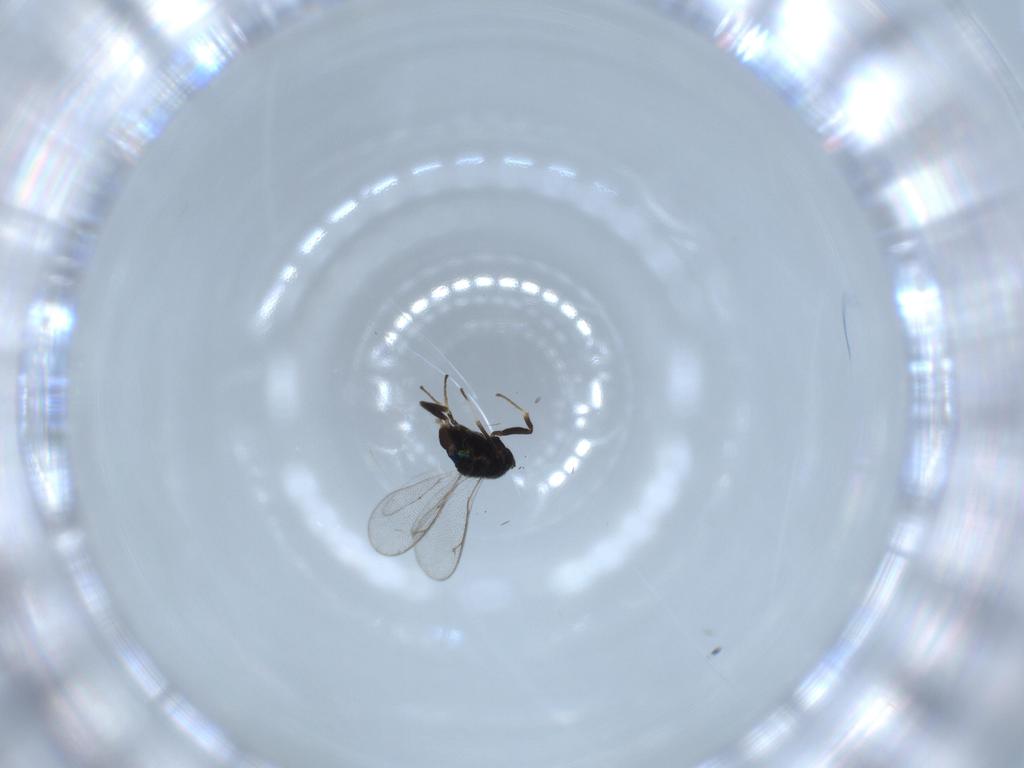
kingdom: Animalia
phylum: Arthropoda
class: Insecta
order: Hymenoptera
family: Eupelmidae
